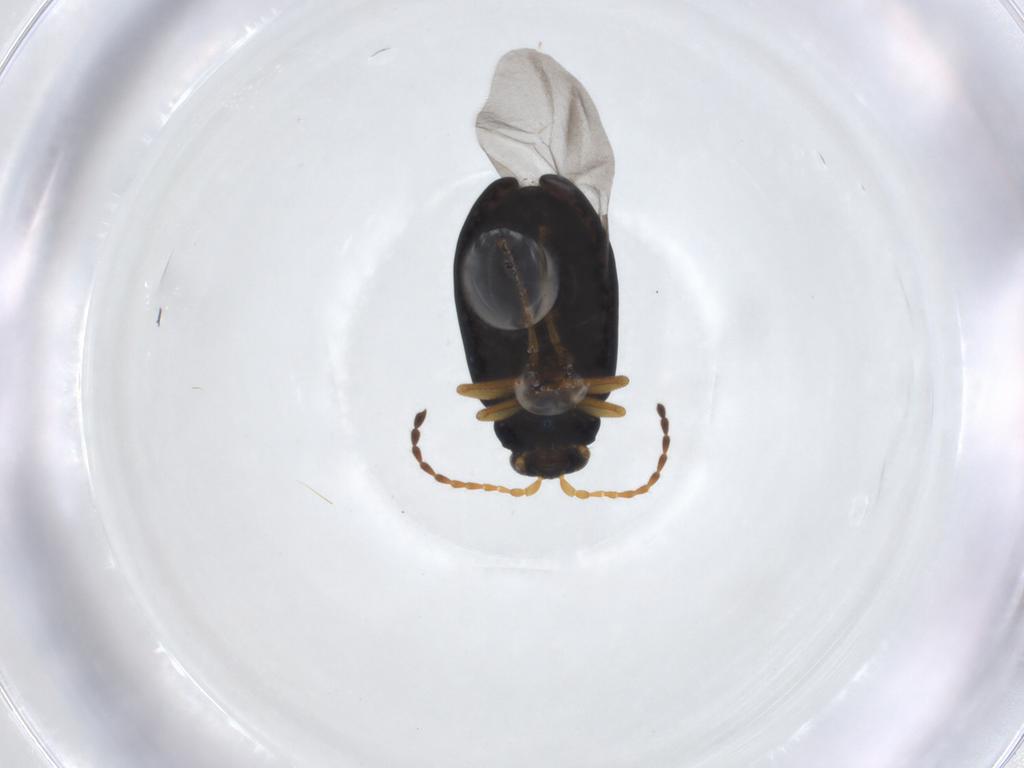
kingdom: Animalia
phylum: Arthropoda
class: Insecta
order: Coleoptera
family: Chrysomelidae
